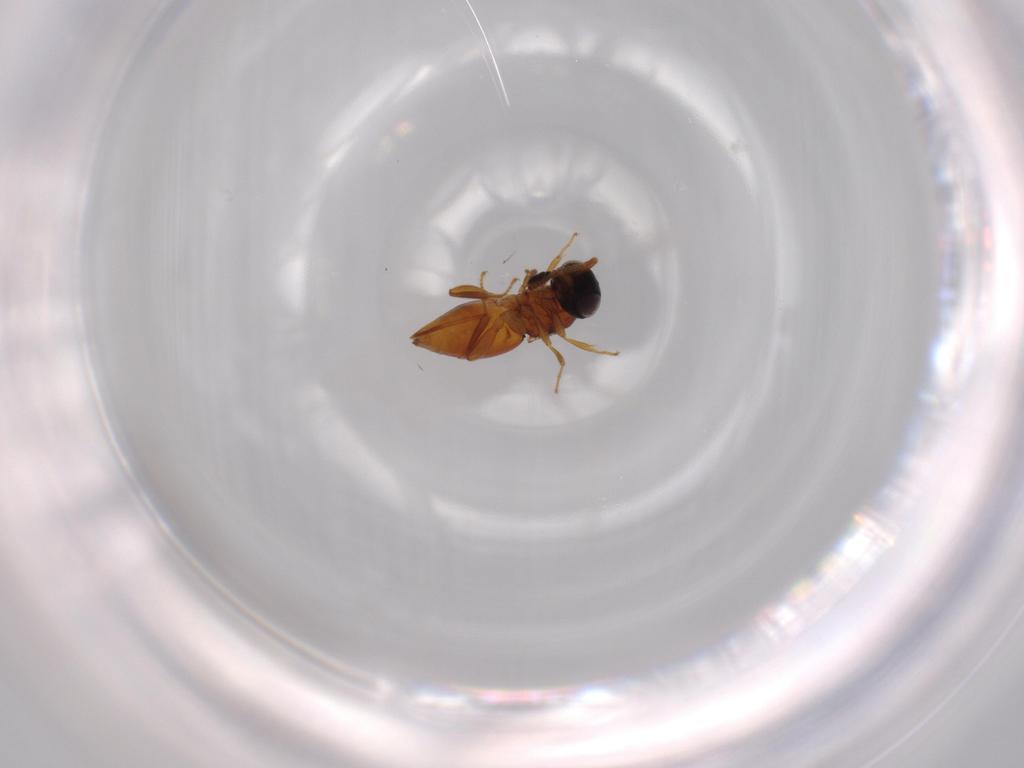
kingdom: Animalia
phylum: Arthropoda
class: Insecta
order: Hymenoptera
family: Ceraphronidae
